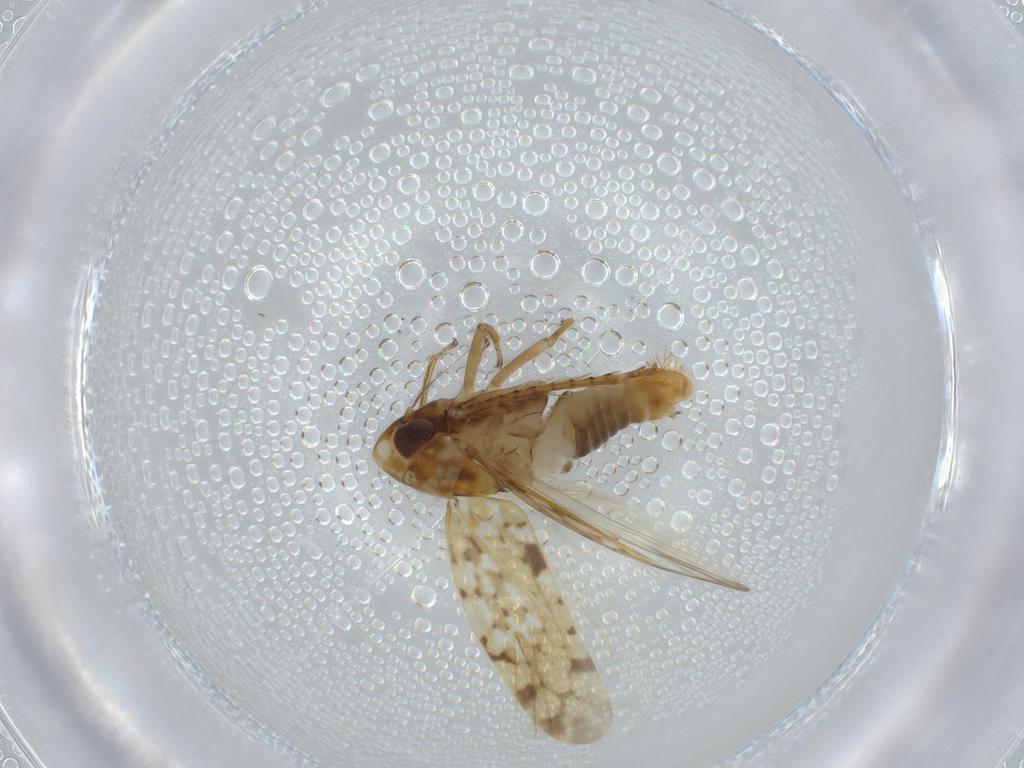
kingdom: Animalia
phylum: Arthropoda
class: Insecta
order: Hemiptera
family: Cicadellidae
